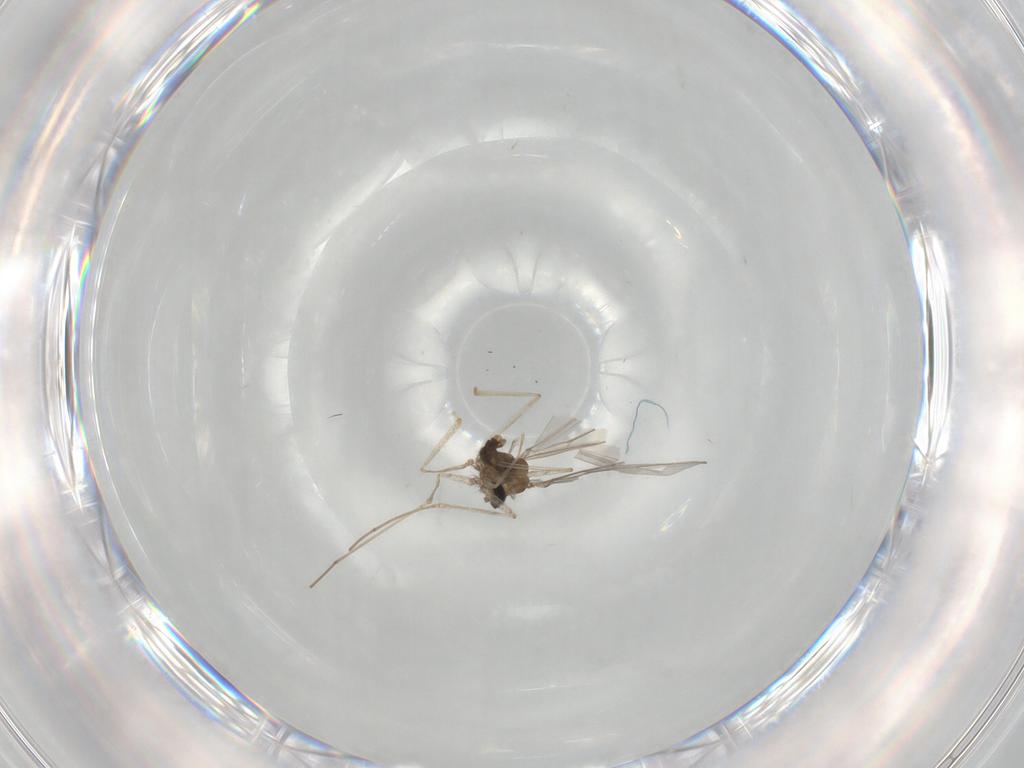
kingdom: Animalia
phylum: Arthropoda
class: Insecta
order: Diptera
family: Cecidomyiidae
